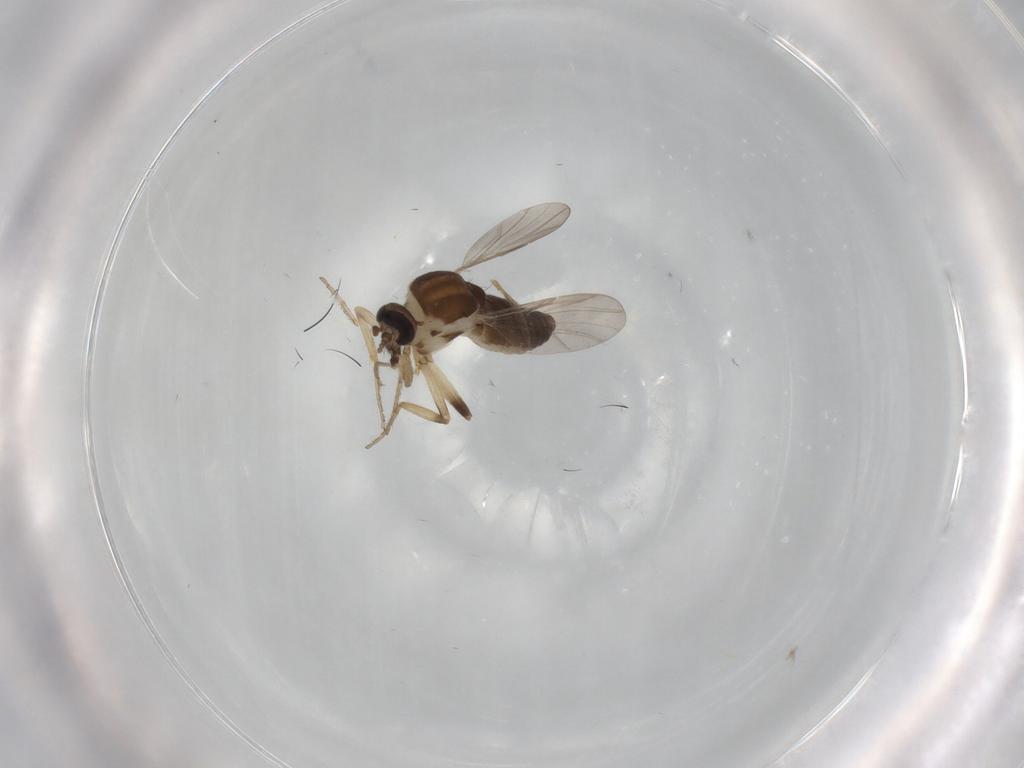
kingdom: Animalia
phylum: Arthropoda
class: Insecta
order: Diptera
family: Ceratopogonidae
